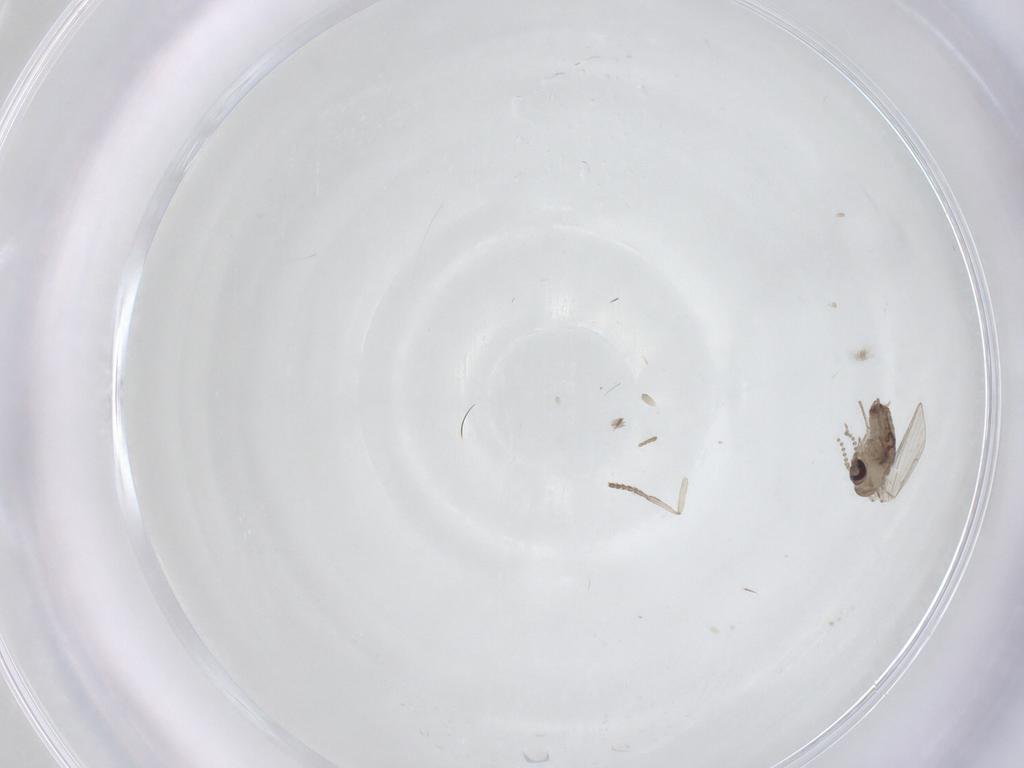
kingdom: Animalia
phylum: Arthropoda
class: Insecta
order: Diptera
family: Psychodidae
